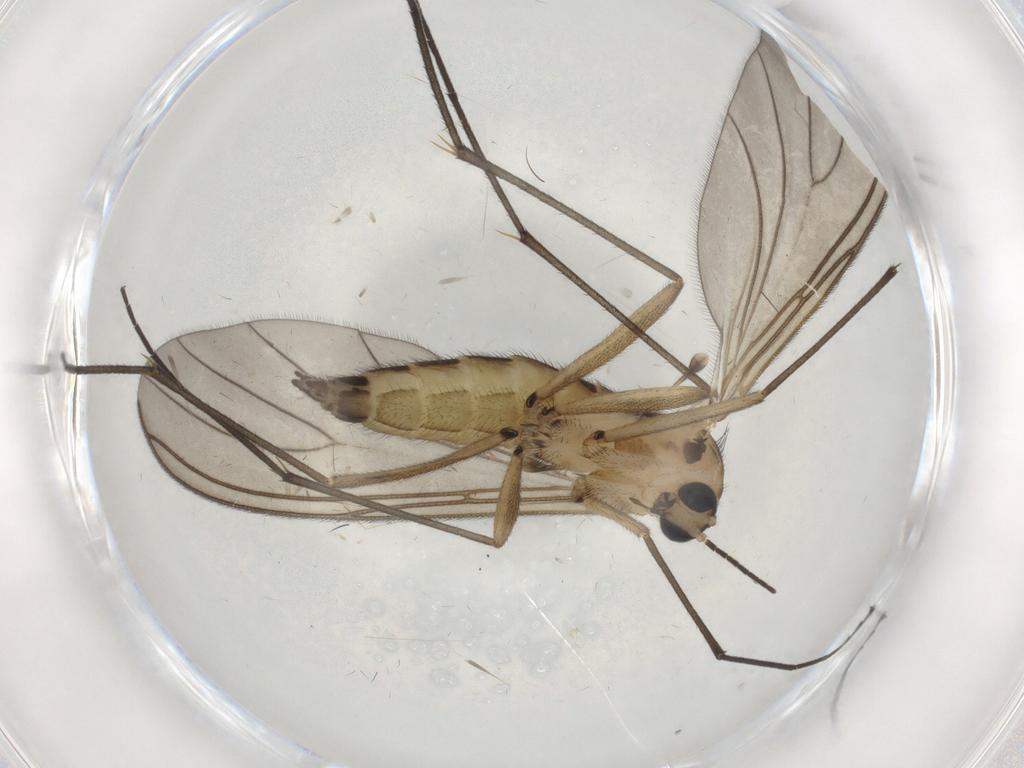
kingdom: Animalia
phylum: Arthropoda
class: Insecta
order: Diptera
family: Sciaridae
